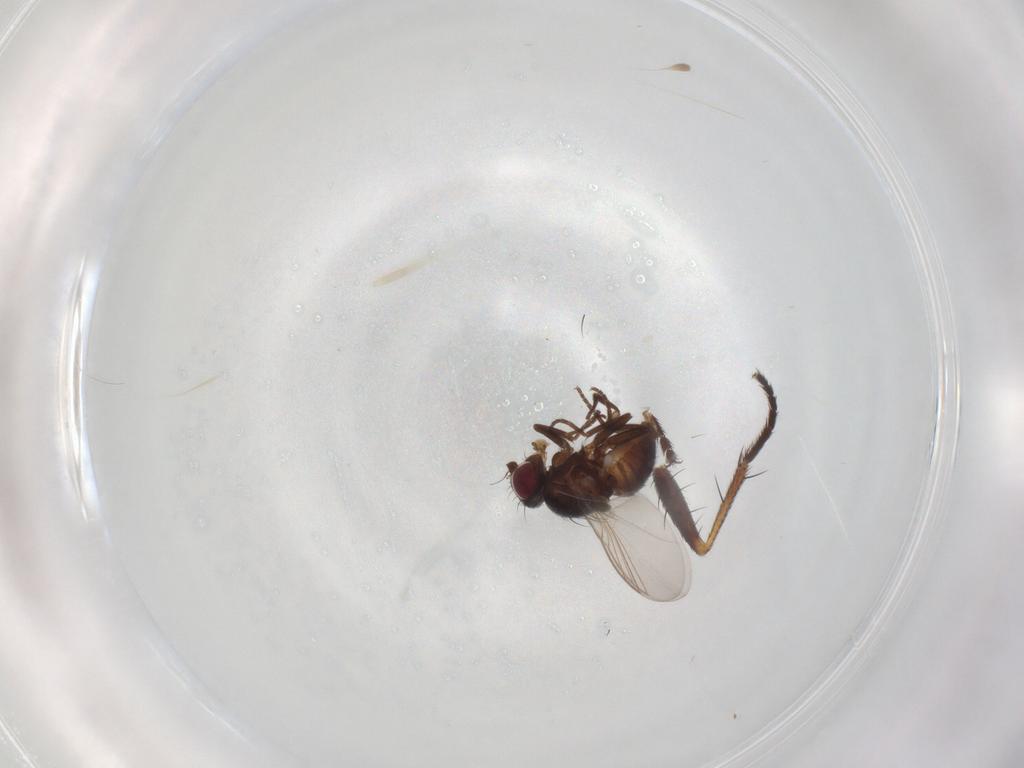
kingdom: Animalia
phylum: Arthropoda
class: Insecta
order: Diptera
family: Muscidae
